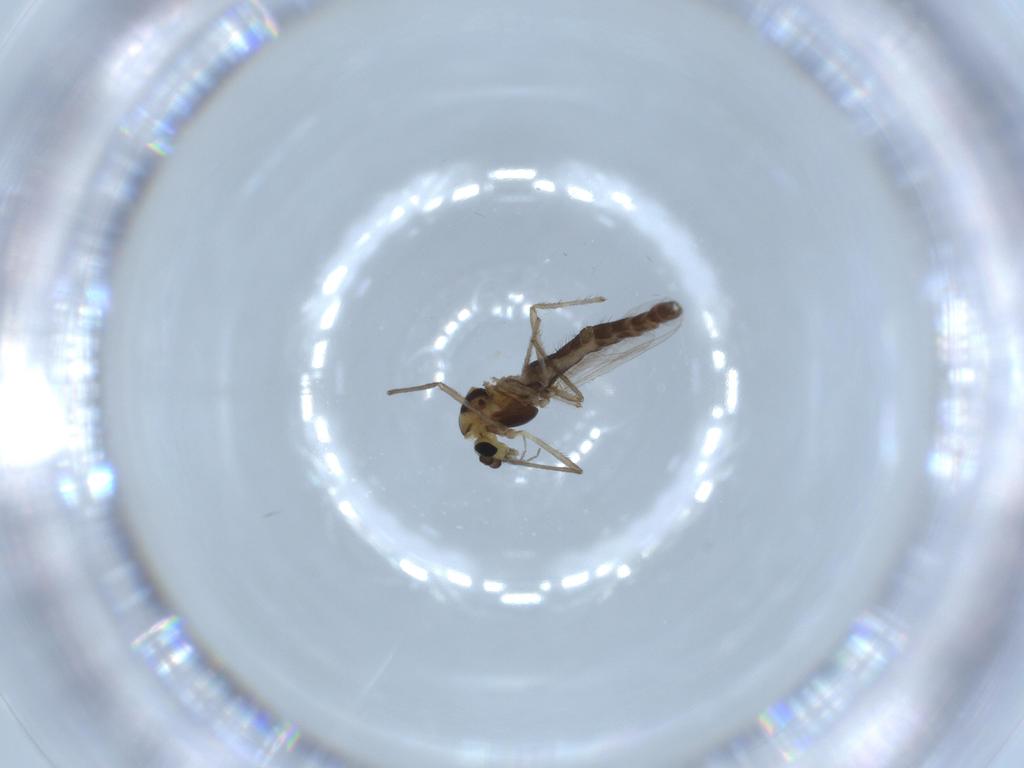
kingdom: Animalia
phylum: Arthropoda
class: Insecta
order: Diptera
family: Chironomidae
